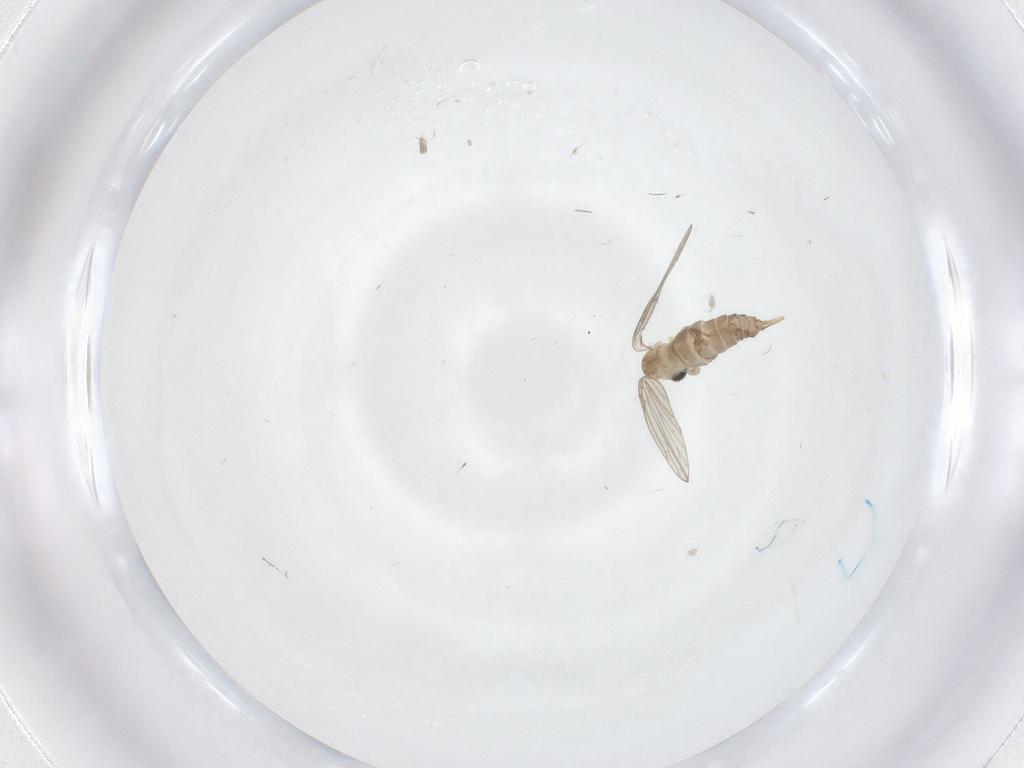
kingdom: Animalia
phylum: Arthropoda
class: Insecta
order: Diptera
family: Psychodidae
